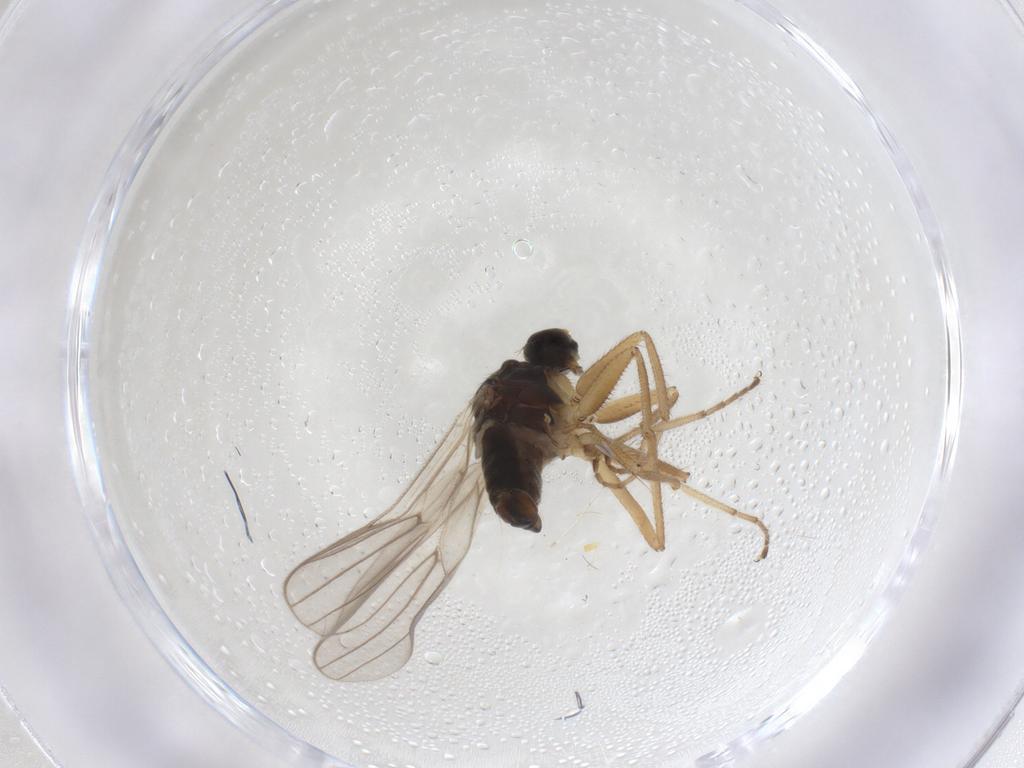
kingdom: Animalia
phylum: Arthropoda
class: Insecta
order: Diptera
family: Hybotidae
